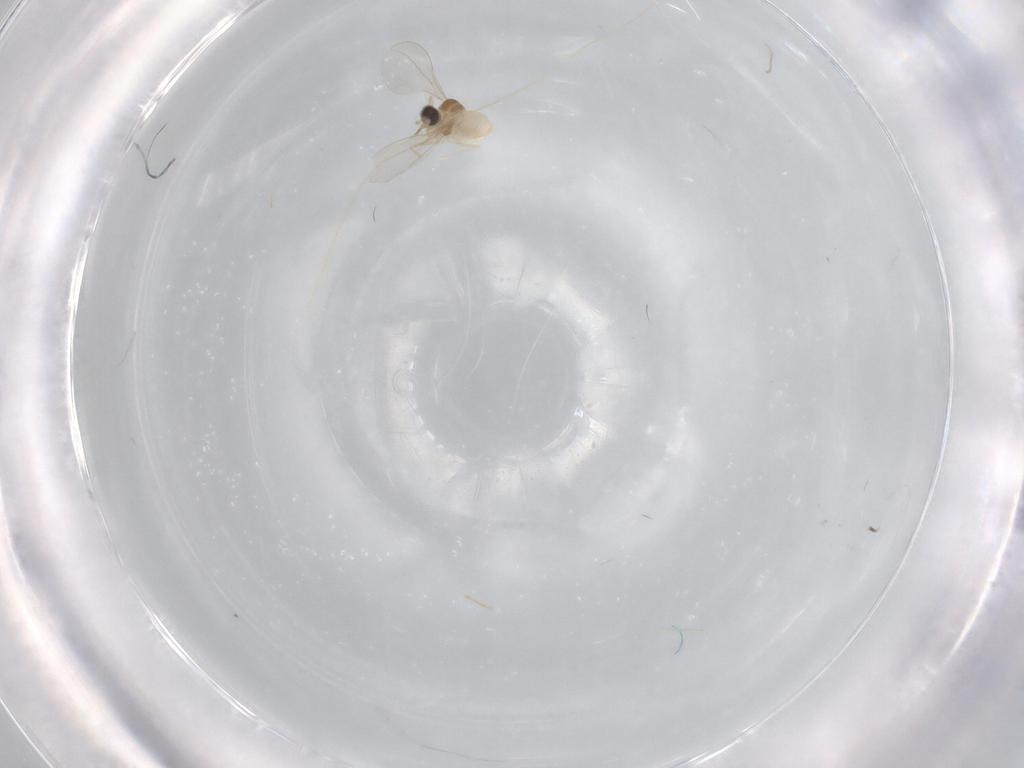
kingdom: Animalia
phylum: Arthropoda
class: Insecta
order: Diptera
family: Cecidomyiidae
